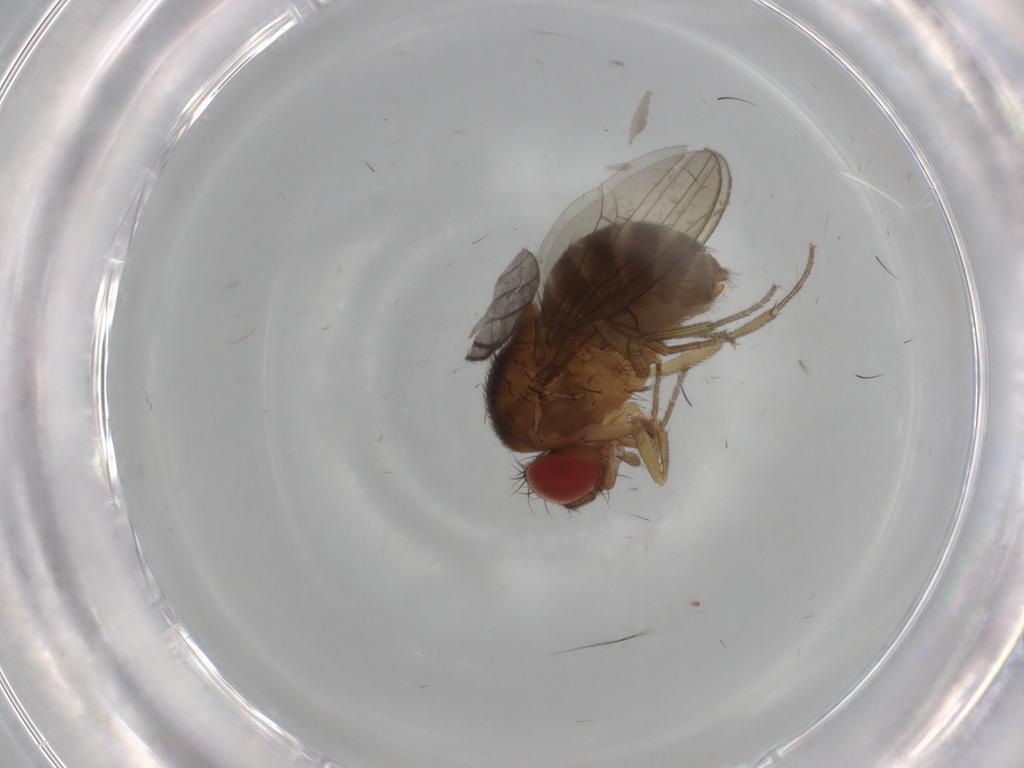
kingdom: Animalia
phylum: Arthropoda
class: Insecta
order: Diptera
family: Drosophilidae
